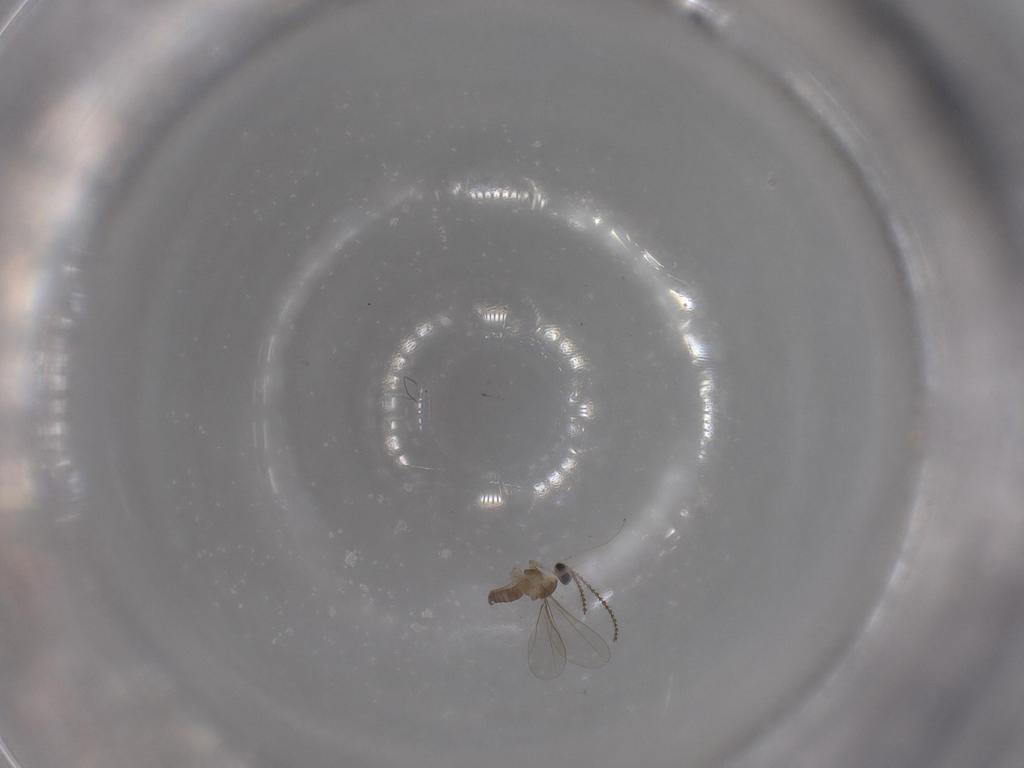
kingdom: Animalia
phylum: Arthropoda
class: Insecta
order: Diptera
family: Cecidomyiidae
